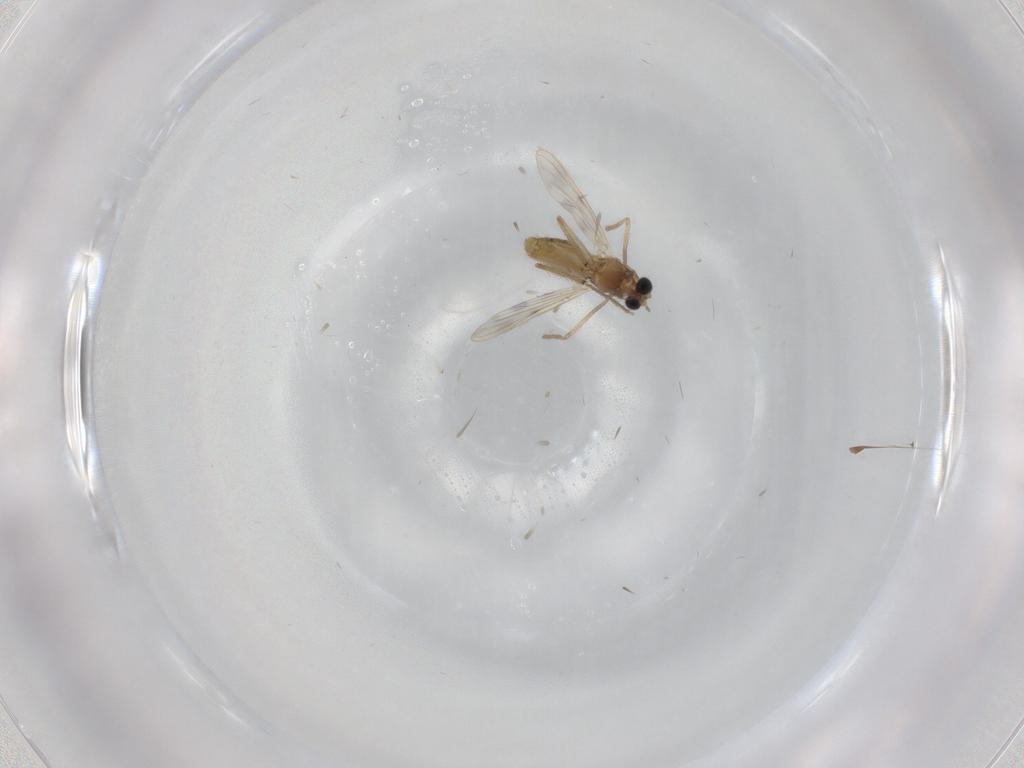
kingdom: Animalia
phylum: Arthropoda
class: Insecta
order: Diptera
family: Chironomidae
